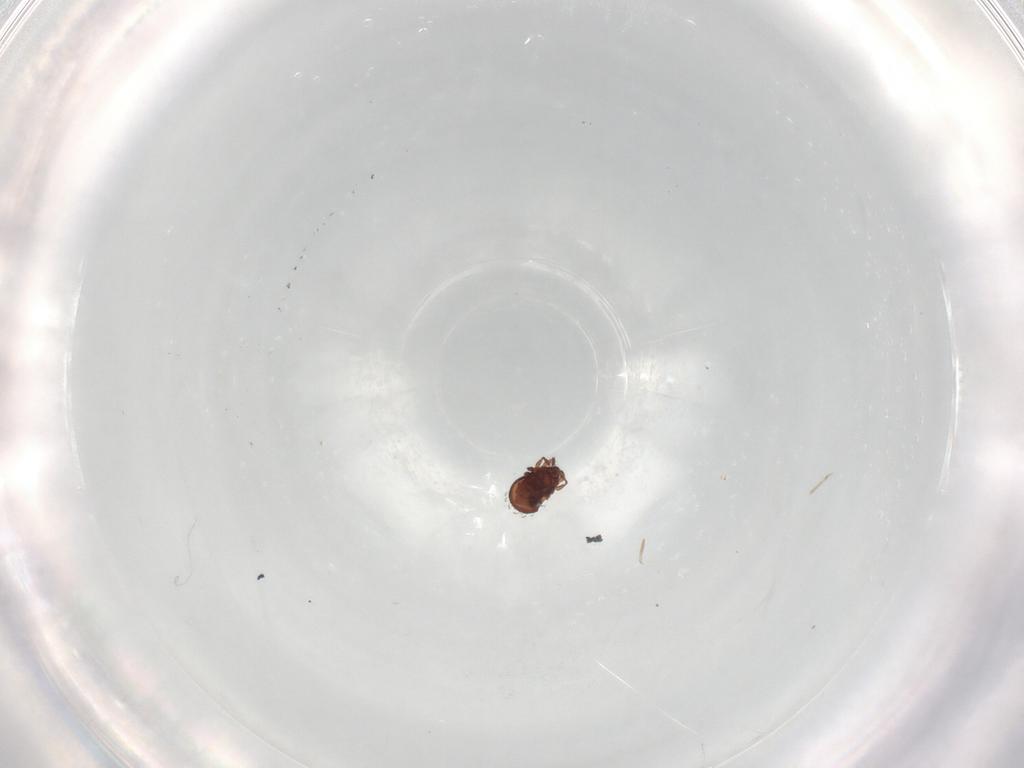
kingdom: Animalia
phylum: Arthropoda
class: Arachnida
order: Sarcoptiformes
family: Scheloribatidae
